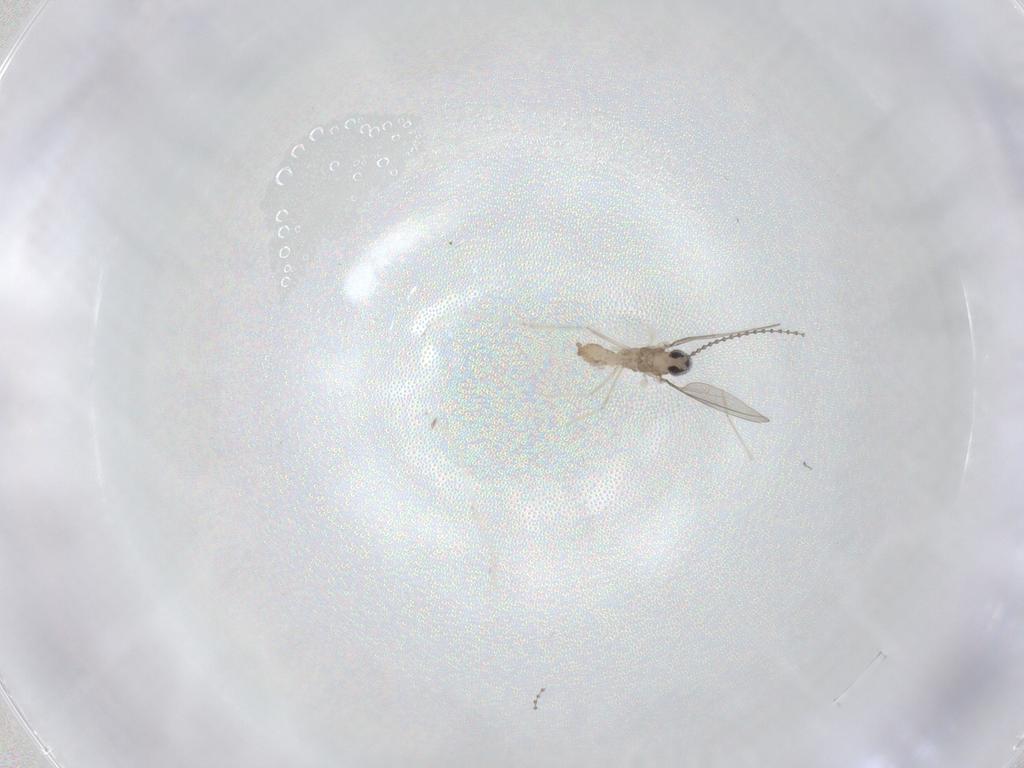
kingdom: Animalia
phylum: Arthropoda
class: Insecta
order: Diptera
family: Cecidomyiidae
